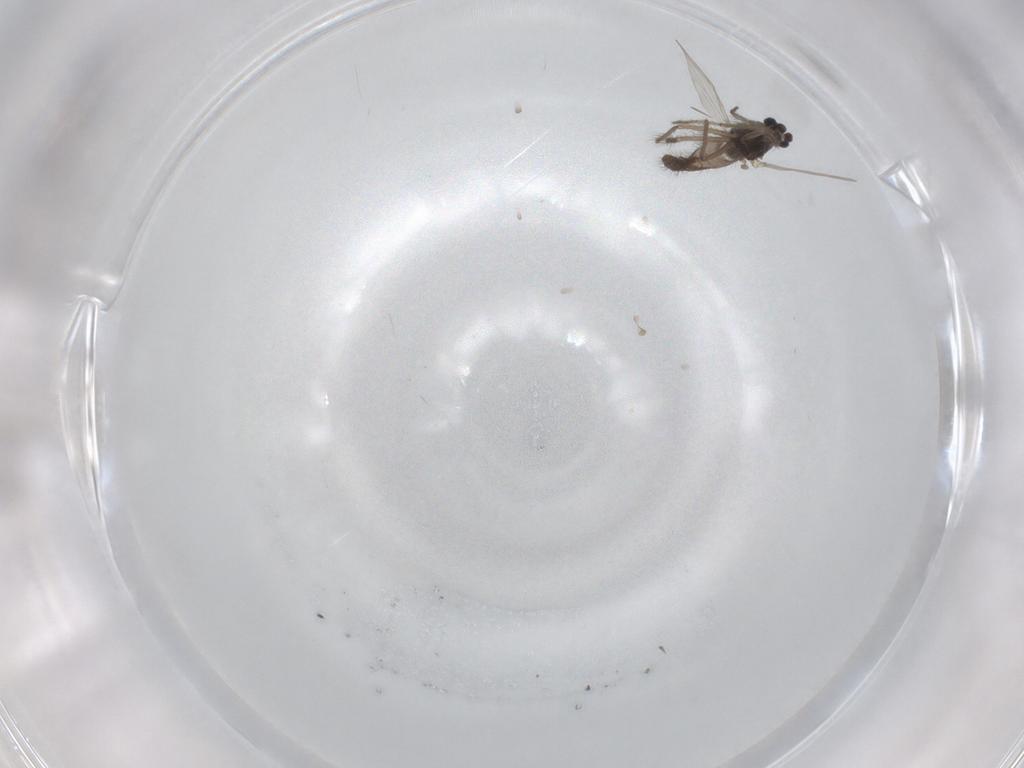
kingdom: Animalia
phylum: Arthropoda
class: Insecta
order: Diptera
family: Chironomidae
